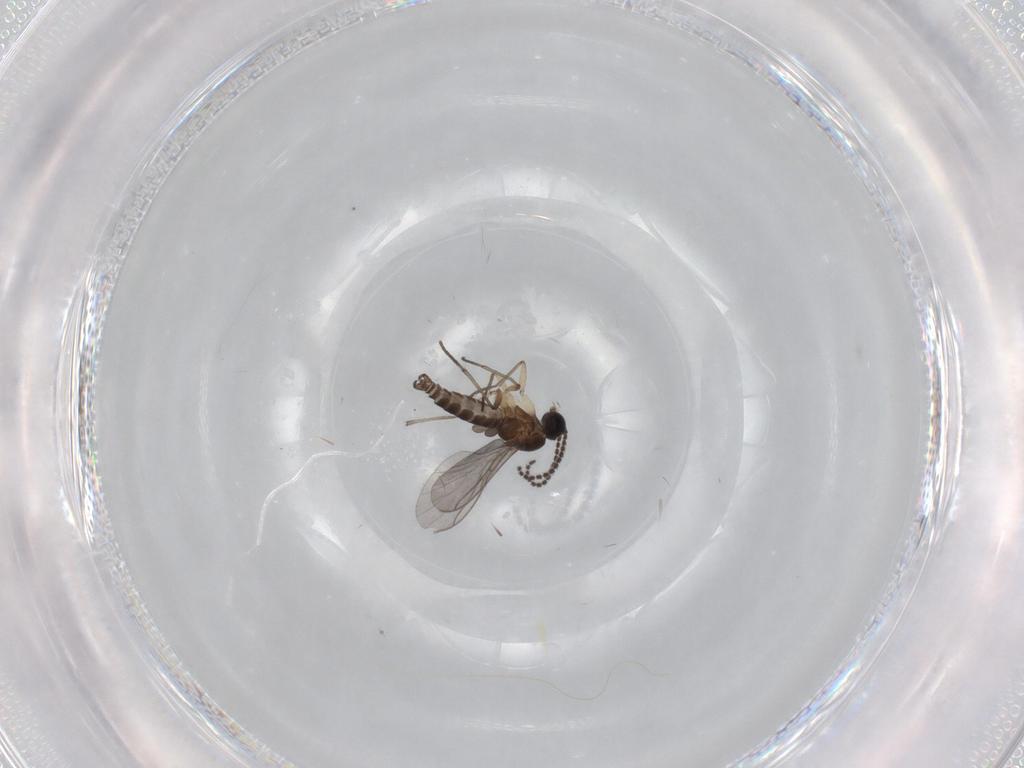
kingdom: Animalia
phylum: Arthropoda
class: Insecta
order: Diptera
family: Sciaridae
